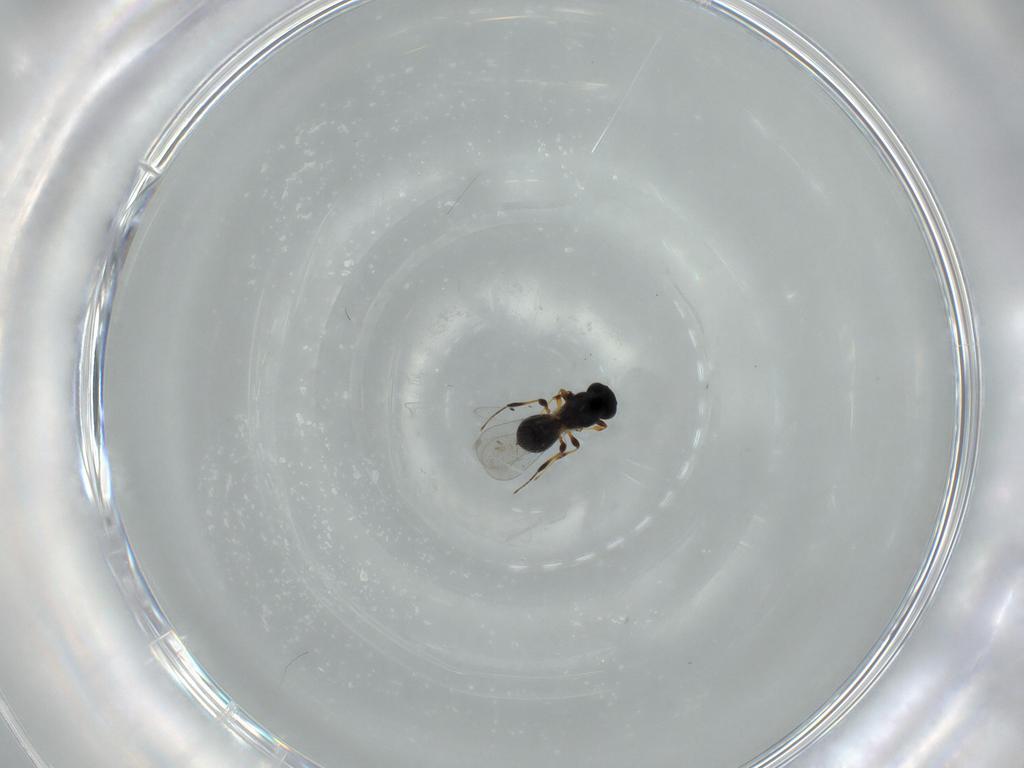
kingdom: Animalia
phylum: Arthropoda
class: Insecta
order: Hymenoptera
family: Platygastridae
